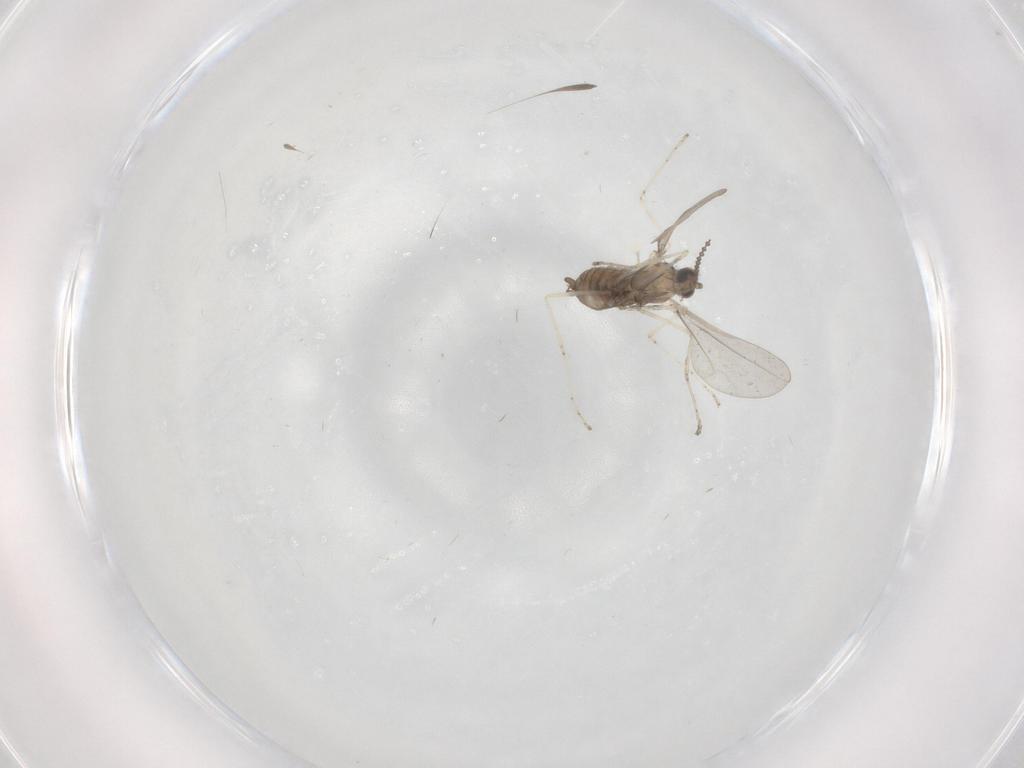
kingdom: Animalia
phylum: Arthropoda
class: Insecta
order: Diptera
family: Cecidomyiidae
